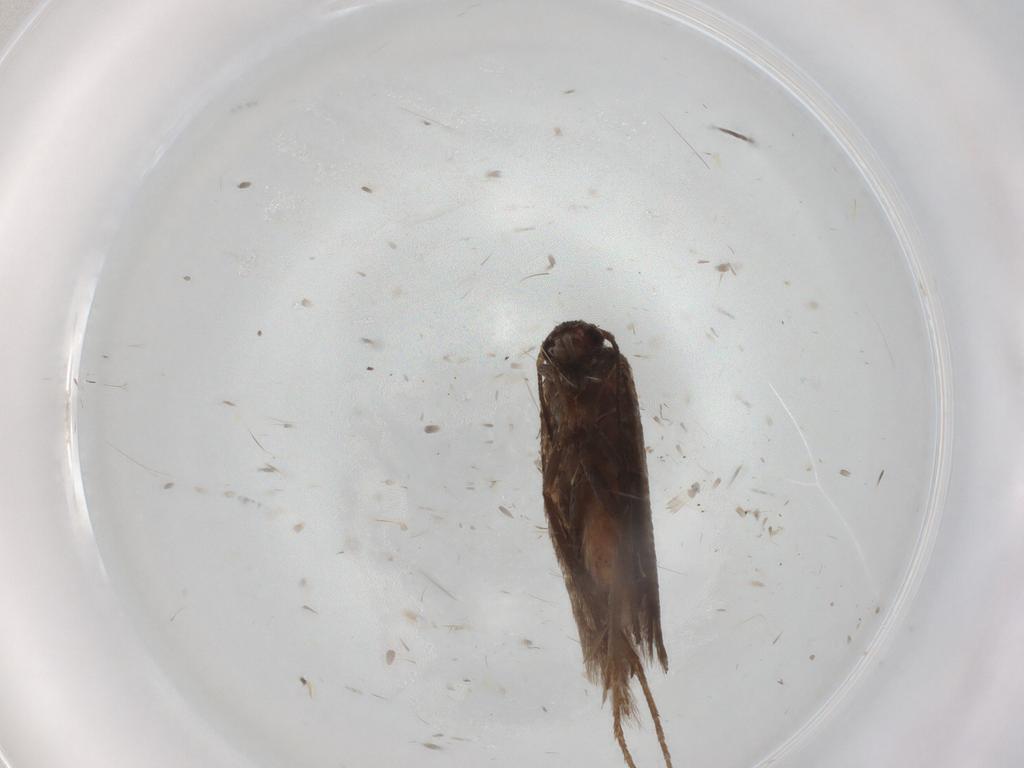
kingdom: Animalia
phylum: Arthropoda
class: Insecta
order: Lepidoptera
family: Scythrididae
